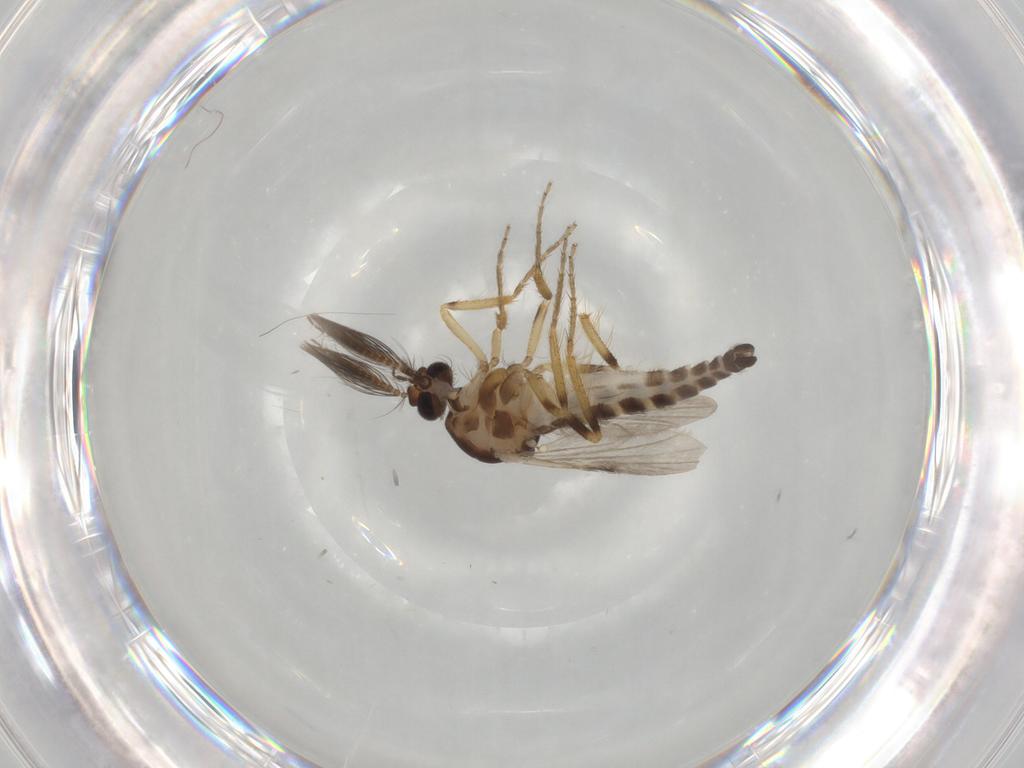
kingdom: Animalia
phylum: Arthropoda
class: Insecta
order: Diptera
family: Ceratopogonidae
